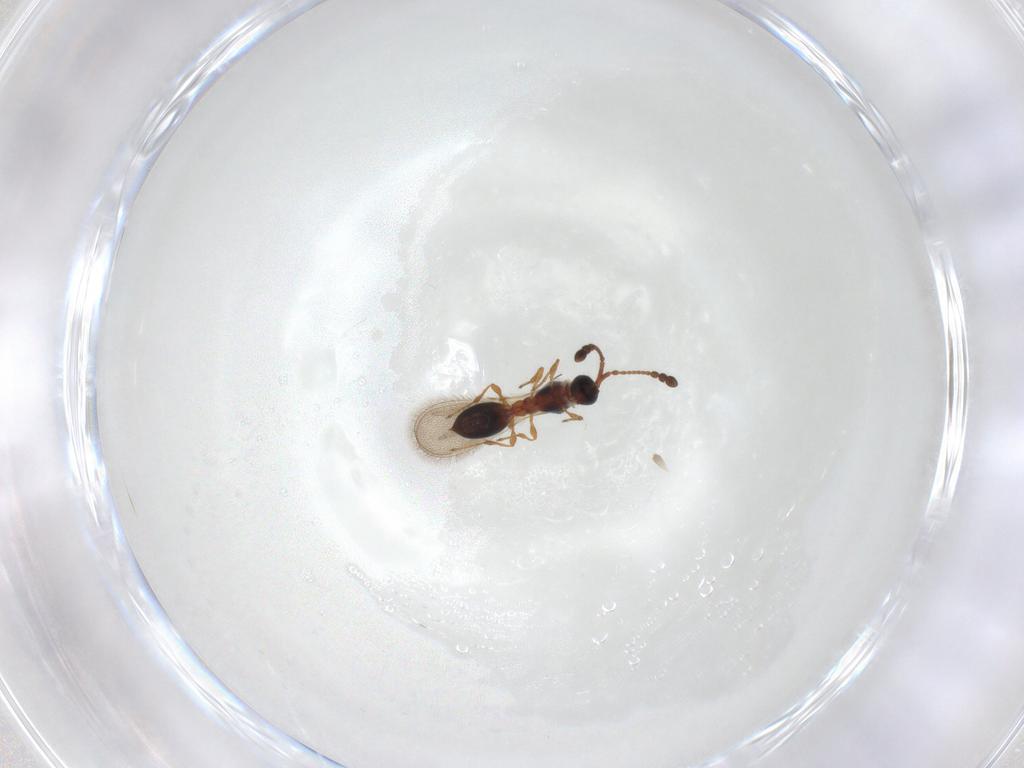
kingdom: Animalia
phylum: Arthropoda
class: Insecta
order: Hymenoptera
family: Diapriidae
